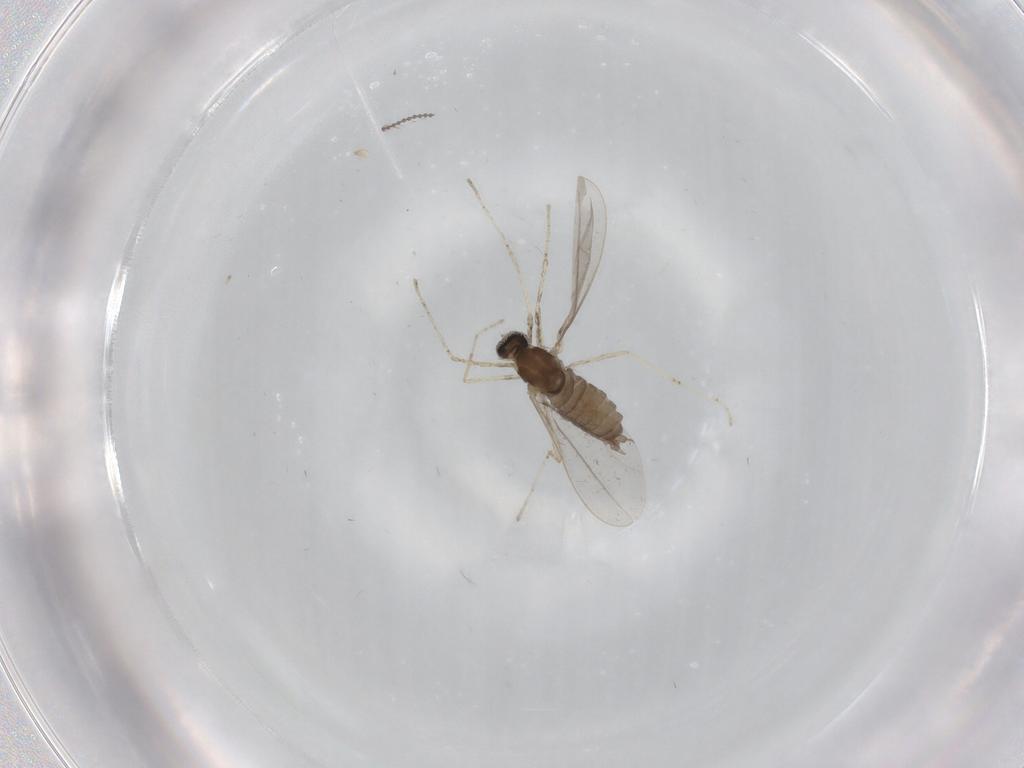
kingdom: Animalia
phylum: Arthropoda
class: Insecta
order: Diptera
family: Cecidomyiidae
